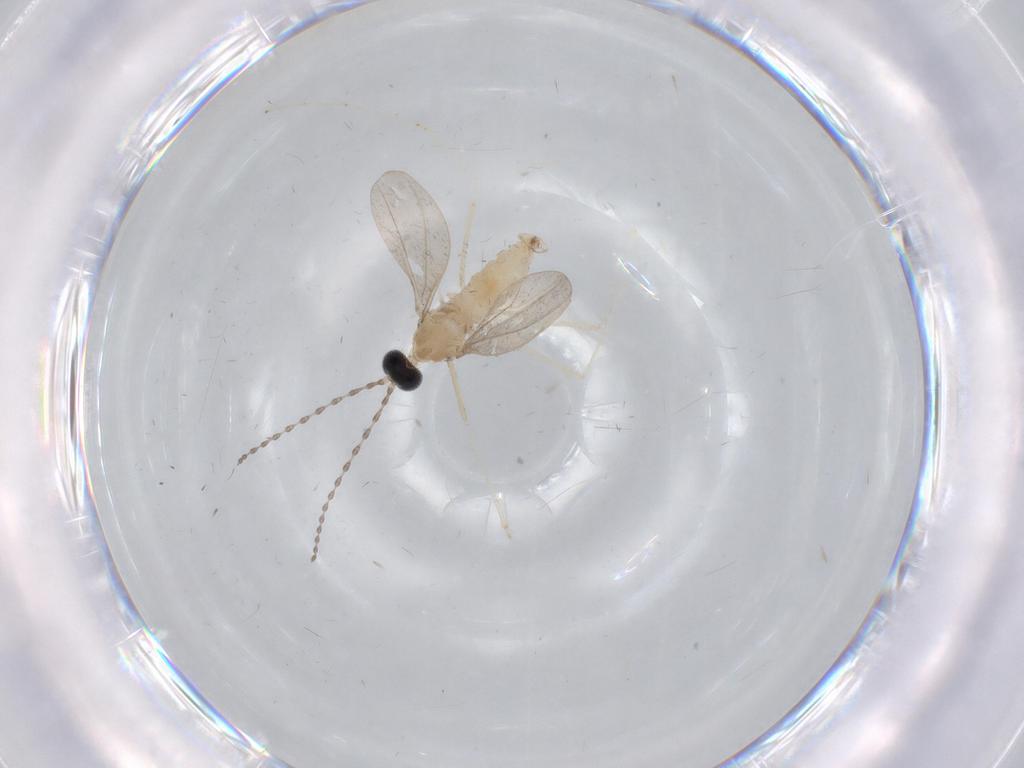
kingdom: Animalia
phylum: Arthropoda
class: Insecta
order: Diptera
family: Cecidomyiidae
